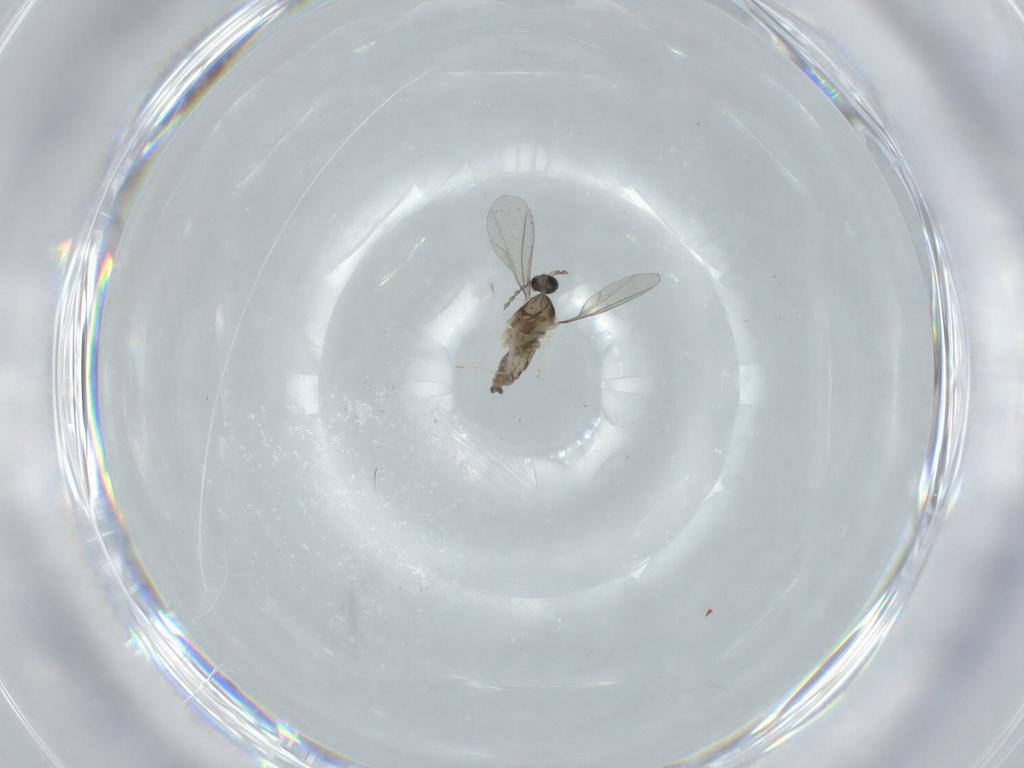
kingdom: Animalia
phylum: Arthropoda
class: Insecta
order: Diptera
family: Cecidomyiidae
